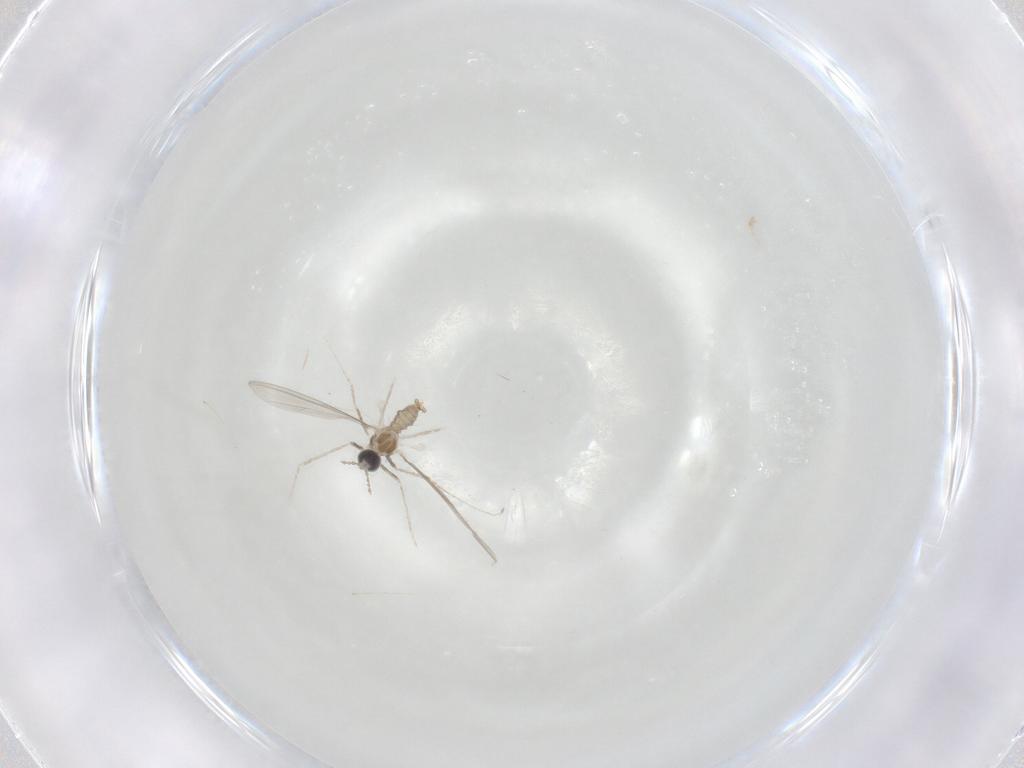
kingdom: Animalia
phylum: Arthropoda
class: Insecta
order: Diptera
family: Cecidomyiidae
